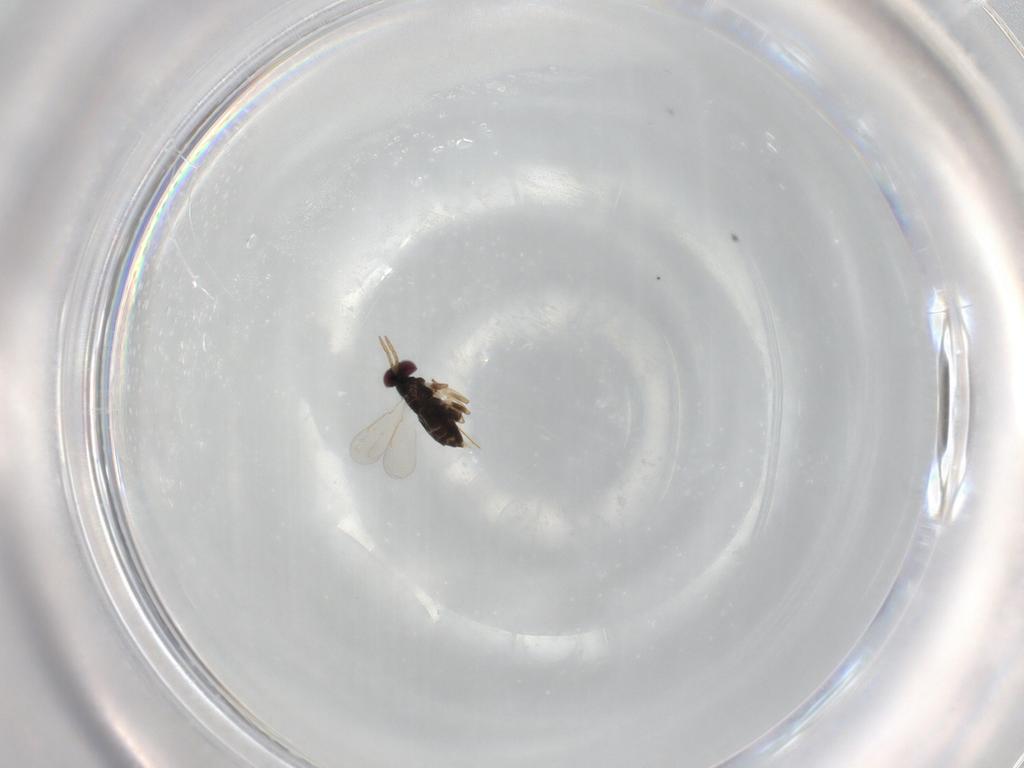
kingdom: Animalia
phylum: Arthropoda
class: Insecta
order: Hymenoptera
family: Aphelinidae
